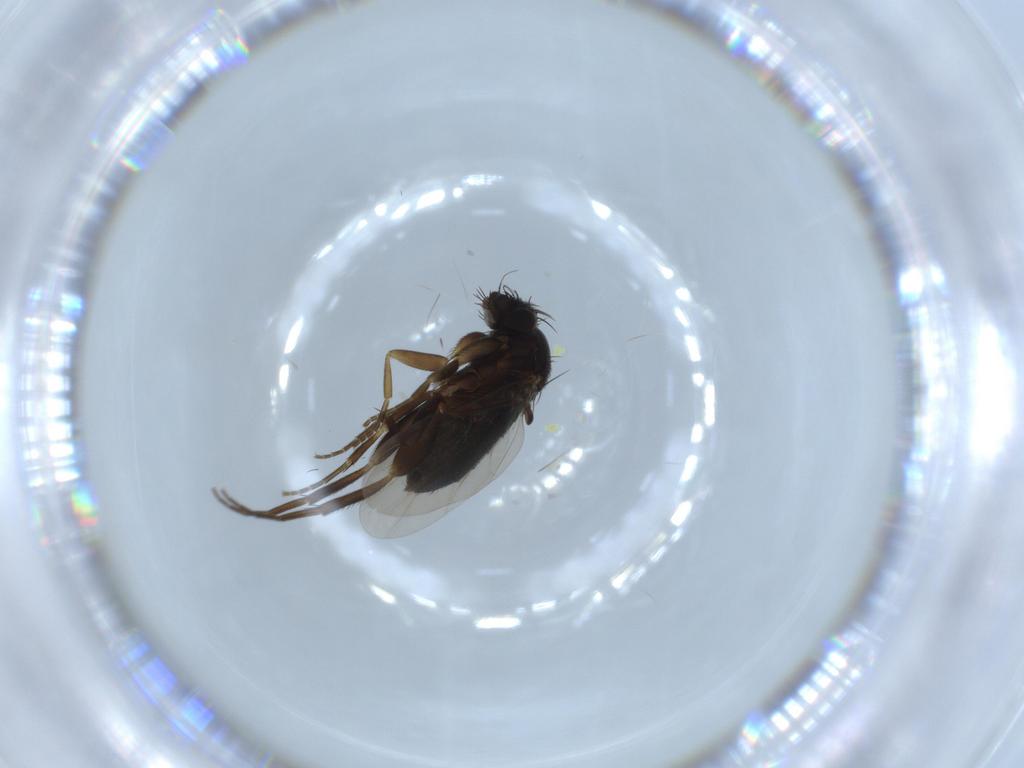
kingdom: Animalia
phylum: Arthropoda
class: Insecta
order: Diptera
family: Phoridae
